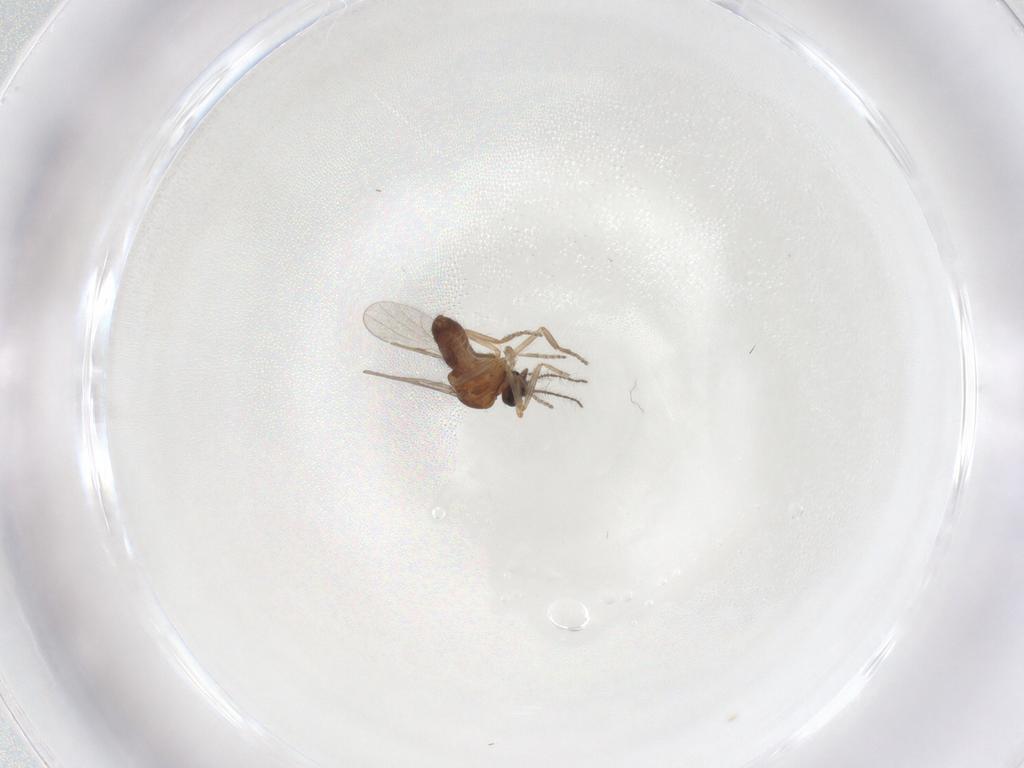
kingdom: Animalia
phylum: Arthropoda
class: Insecta
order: Diptera
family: Ceratopogonidae
